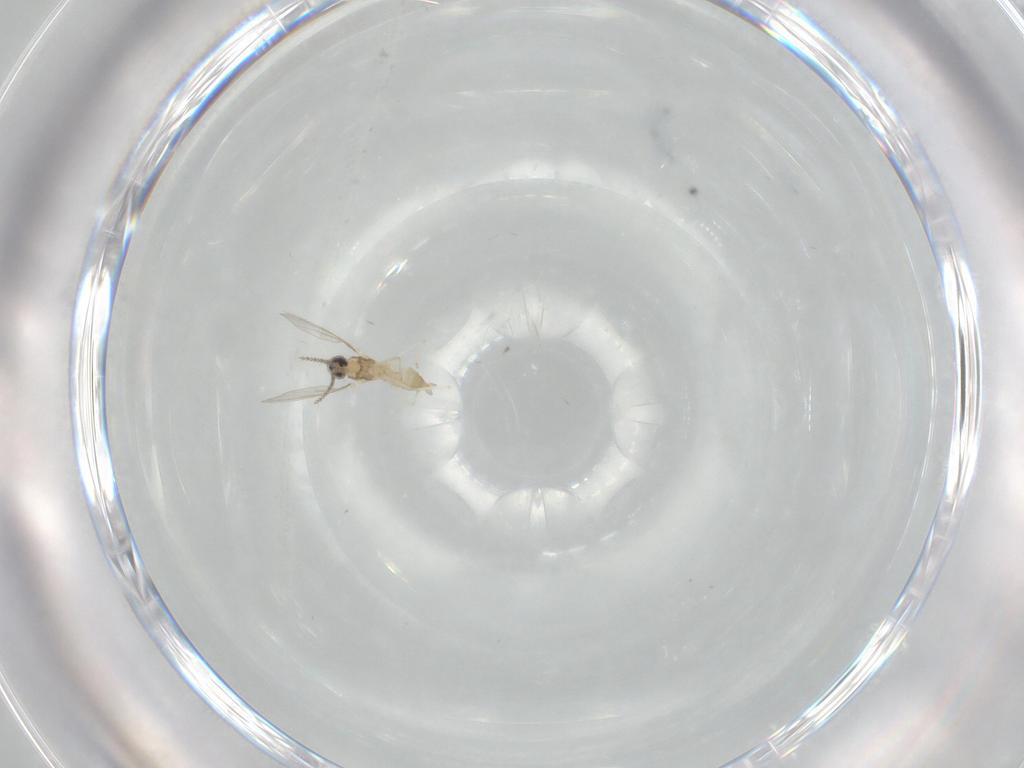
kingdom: Animalia
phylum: Arthropoda
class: Insecta
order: Diptera
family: Cecidomyiidae
